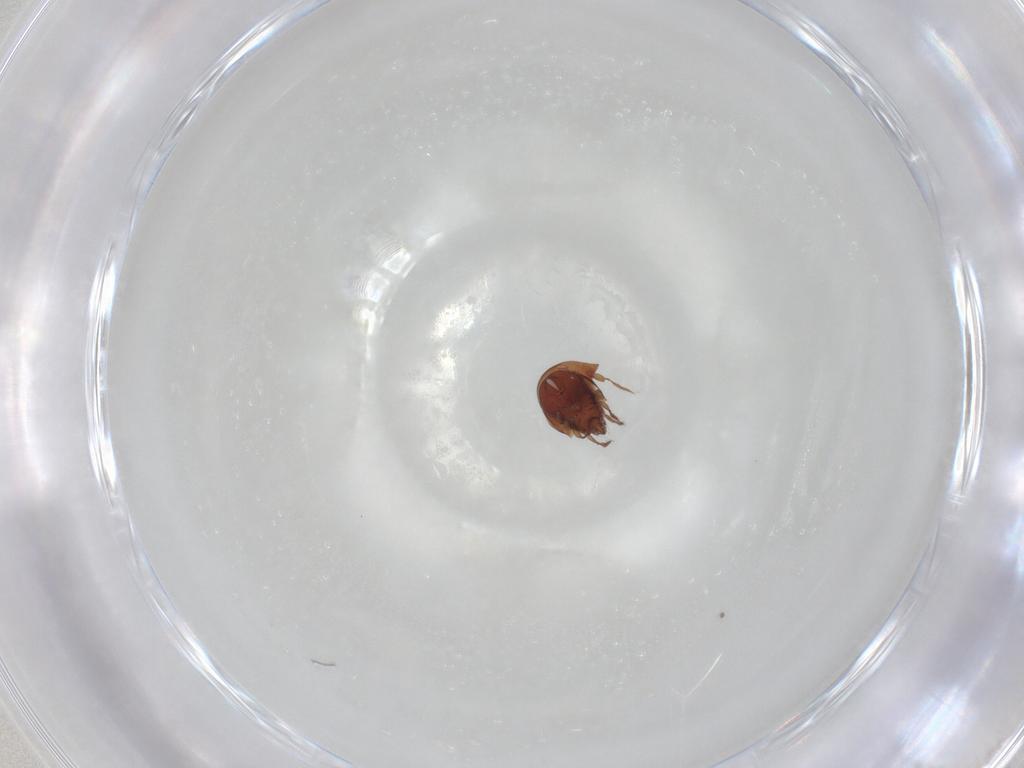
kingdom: Animalia
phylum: Arthropoda
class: Arachnida
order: Sarcoptiformes
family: Ceratozetidae
